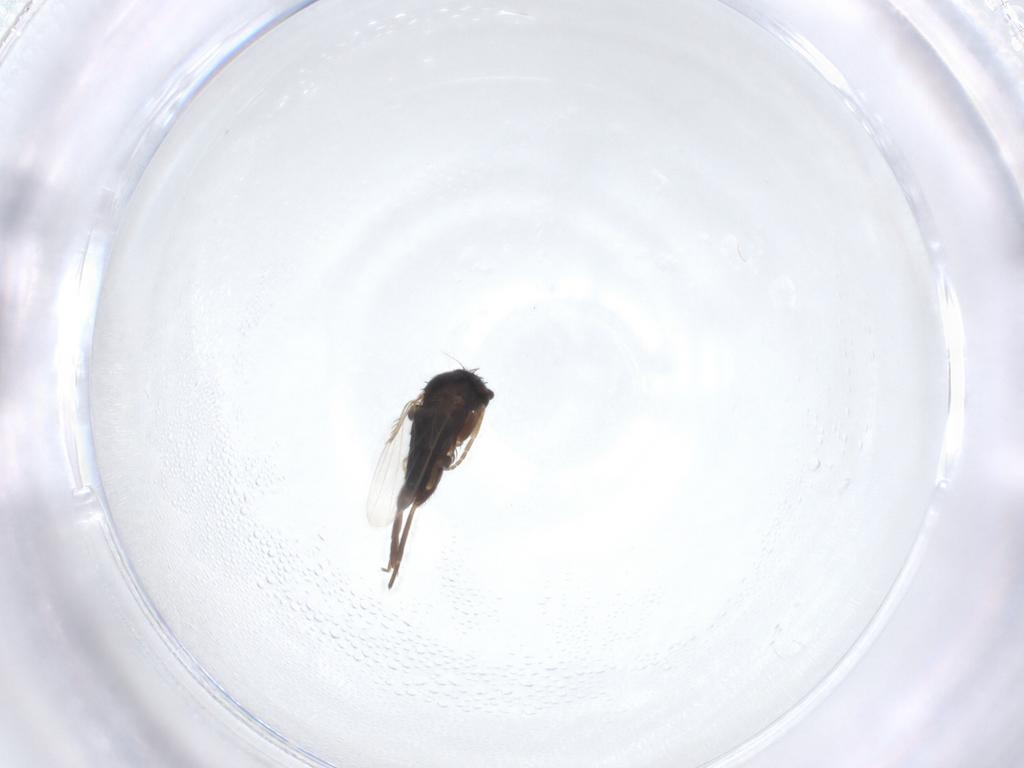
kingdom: Animalia
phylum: Arthropoda
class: Insecta
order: Diptera
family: Phoridae
